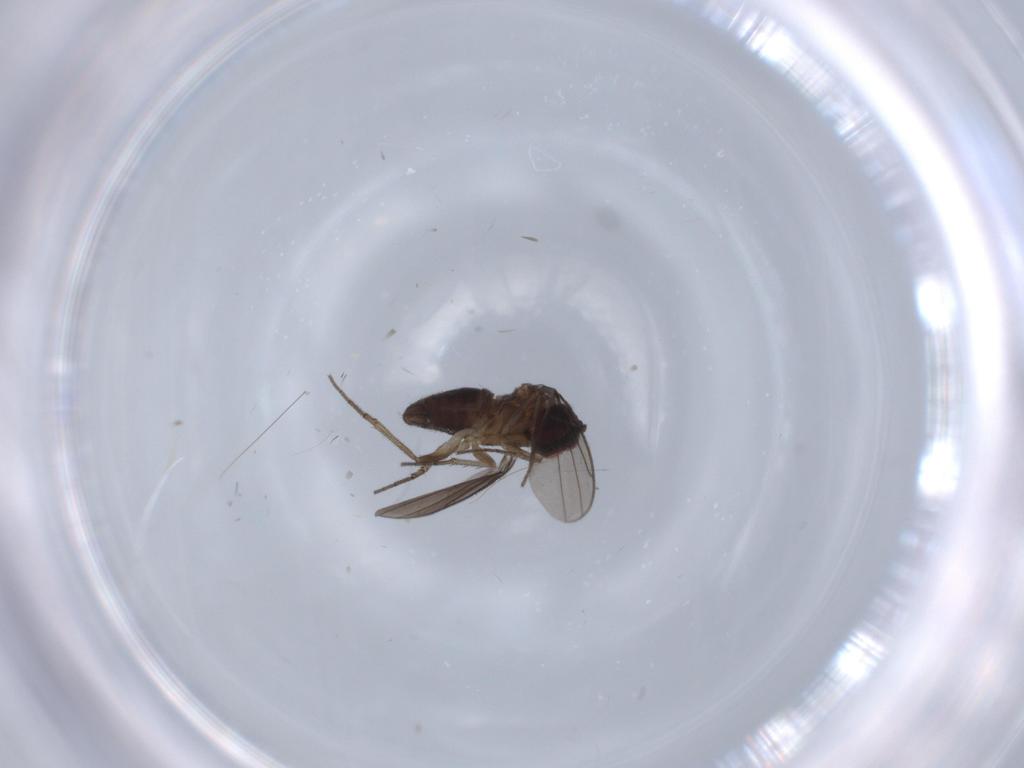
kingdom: Animalia
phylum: Arthropoda
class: Insecta
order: Diptera
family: Dolichopodidae
